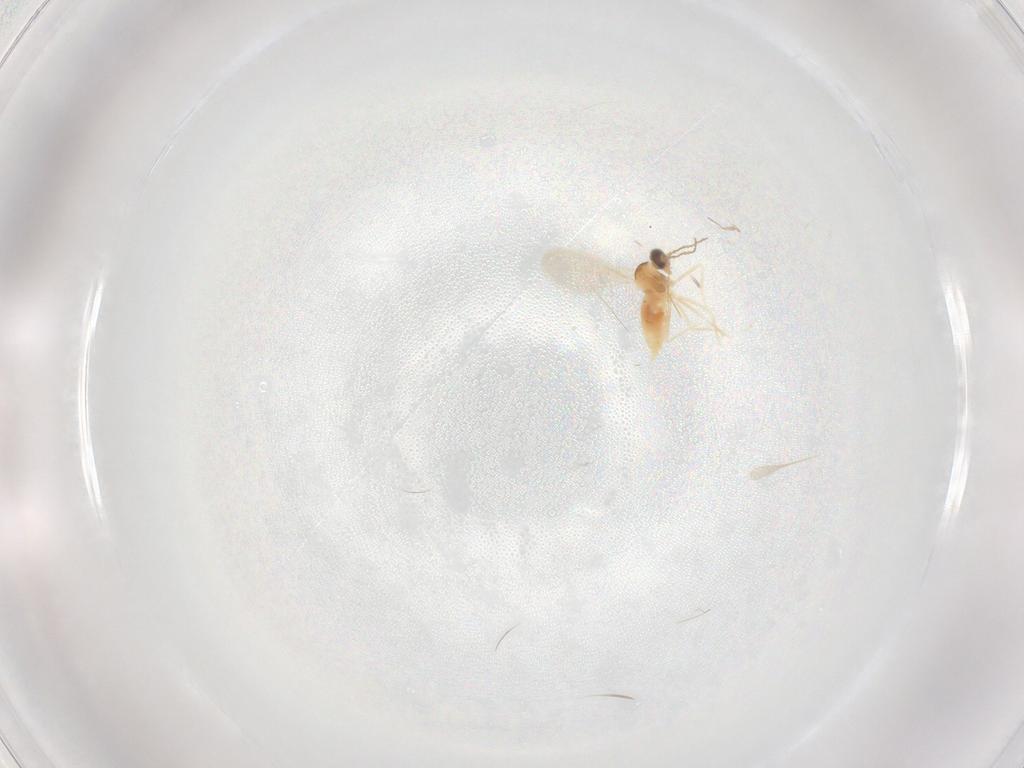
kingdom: Animalia
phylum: Arthropoda
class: Insecta
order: Diptera
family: Cecidomyiidae
